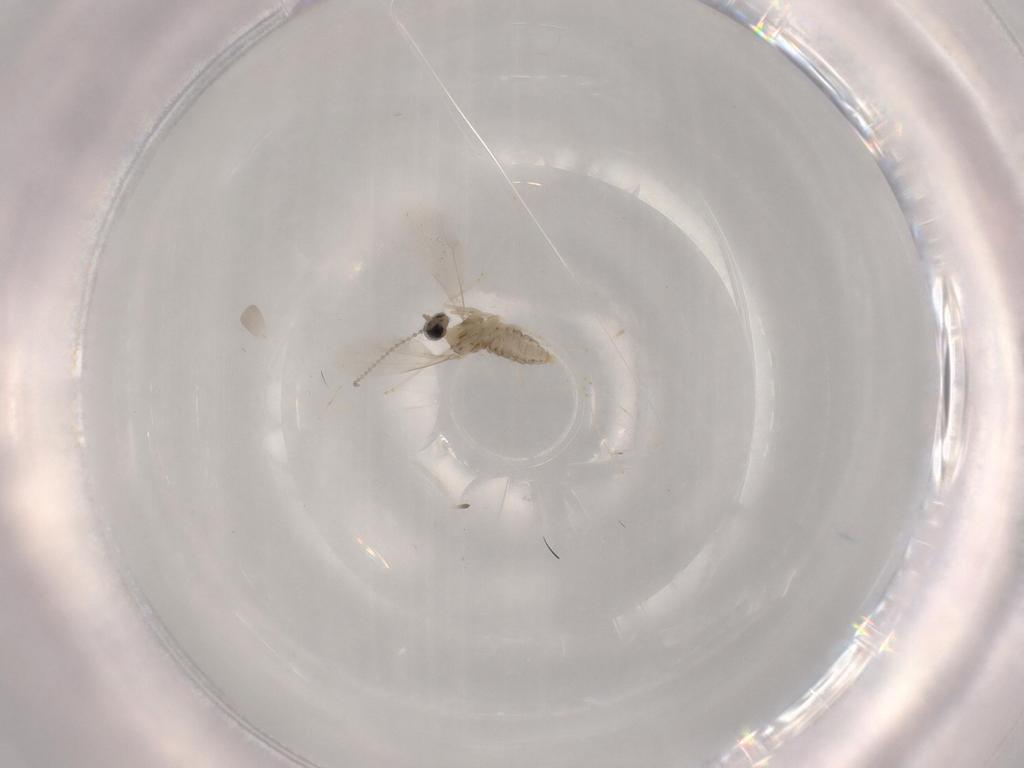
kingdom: Animalia
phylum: Arthropoda
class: Insecta
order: Diptera
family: Cecidomyiidae
